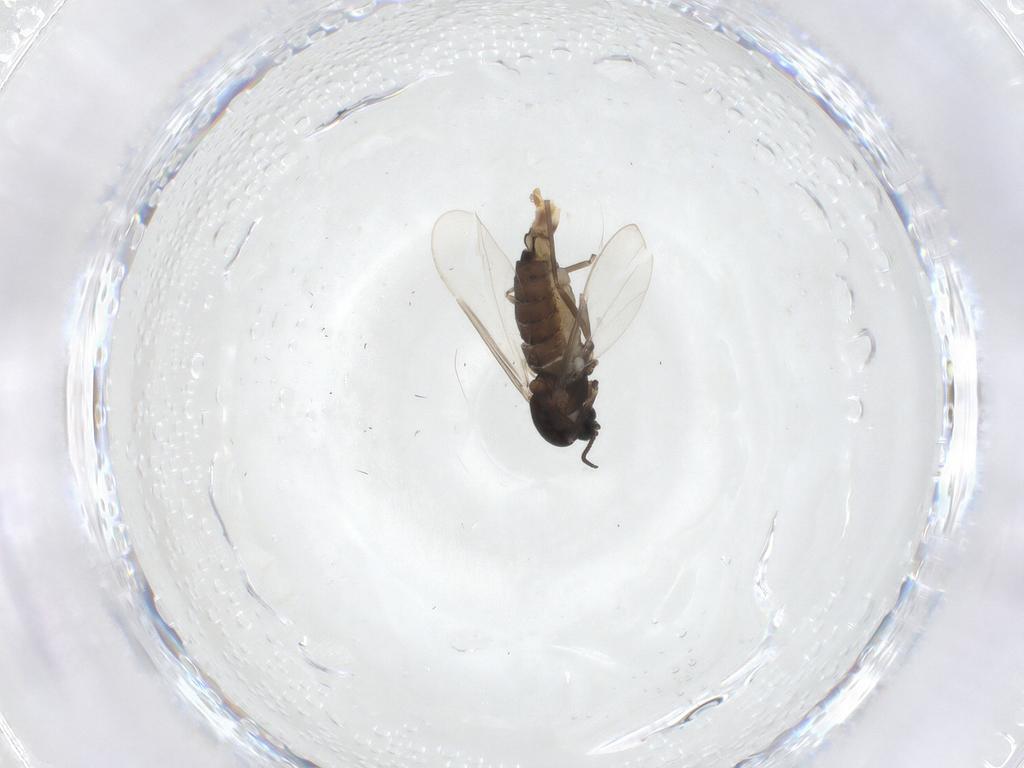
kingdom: Animalia
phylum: Arthropoda
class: Insecta
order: Diptera
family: Cecidomyiidae
